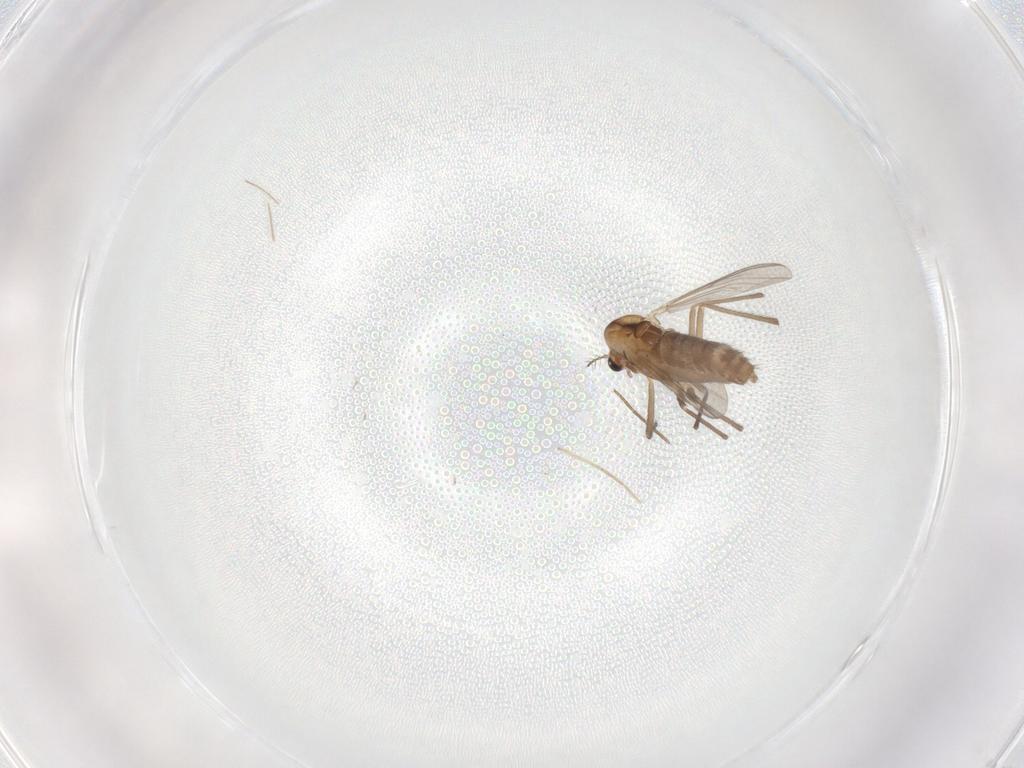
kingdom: Animalia
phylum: Arthropoda
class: Insecta
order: Diptera
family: Chironomidae
